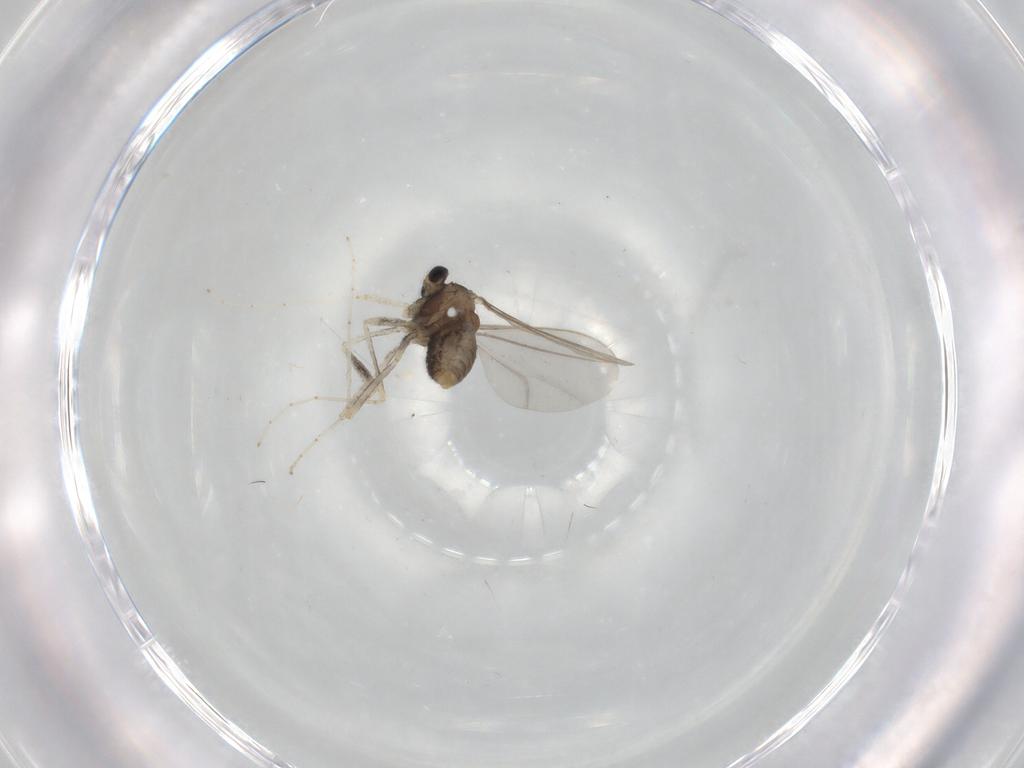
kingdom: Animalia
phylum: Arthropoda
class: Insecta
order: Diptera
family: Cecidomyiidae
